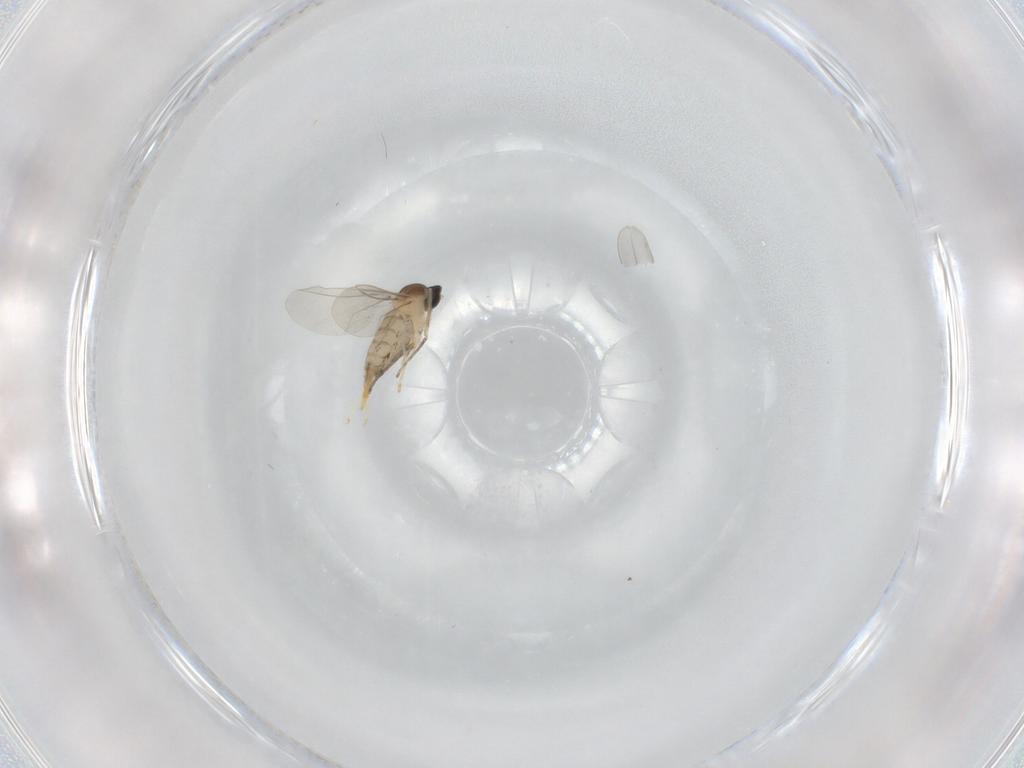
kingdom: Animalia
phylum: Arthropoda
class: Insecta
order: Diptera
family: Cecidomyiidae
